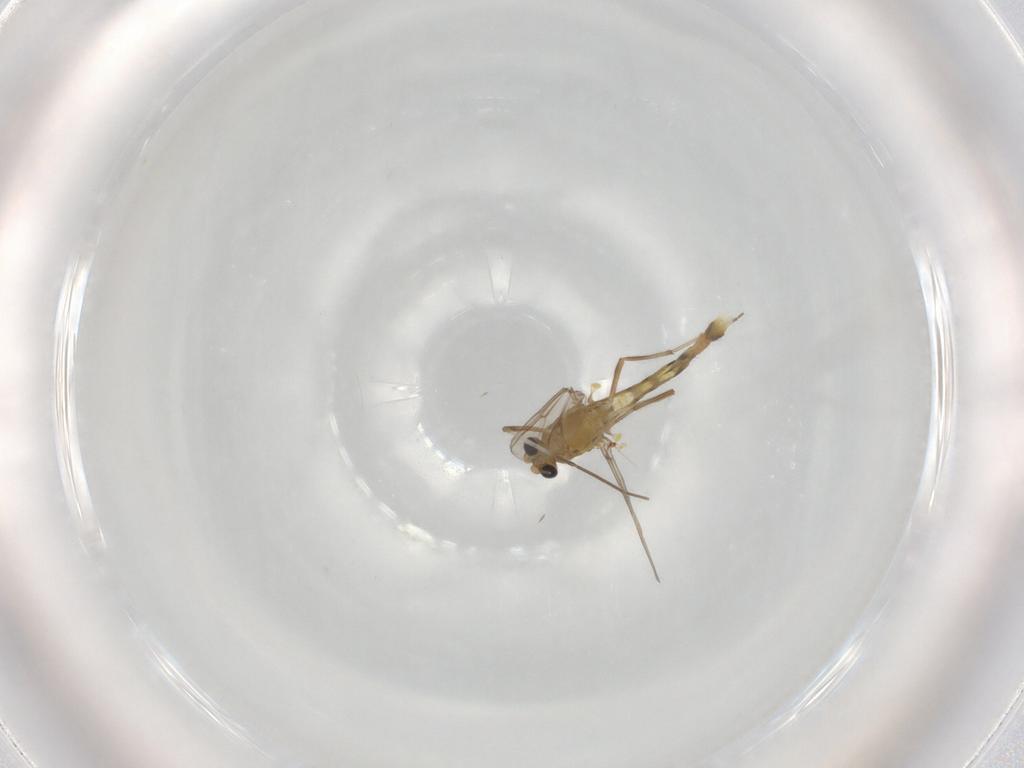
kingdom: Animalia
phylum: Arthropoda
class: Insecta
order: Diptera
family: Chironomidae
